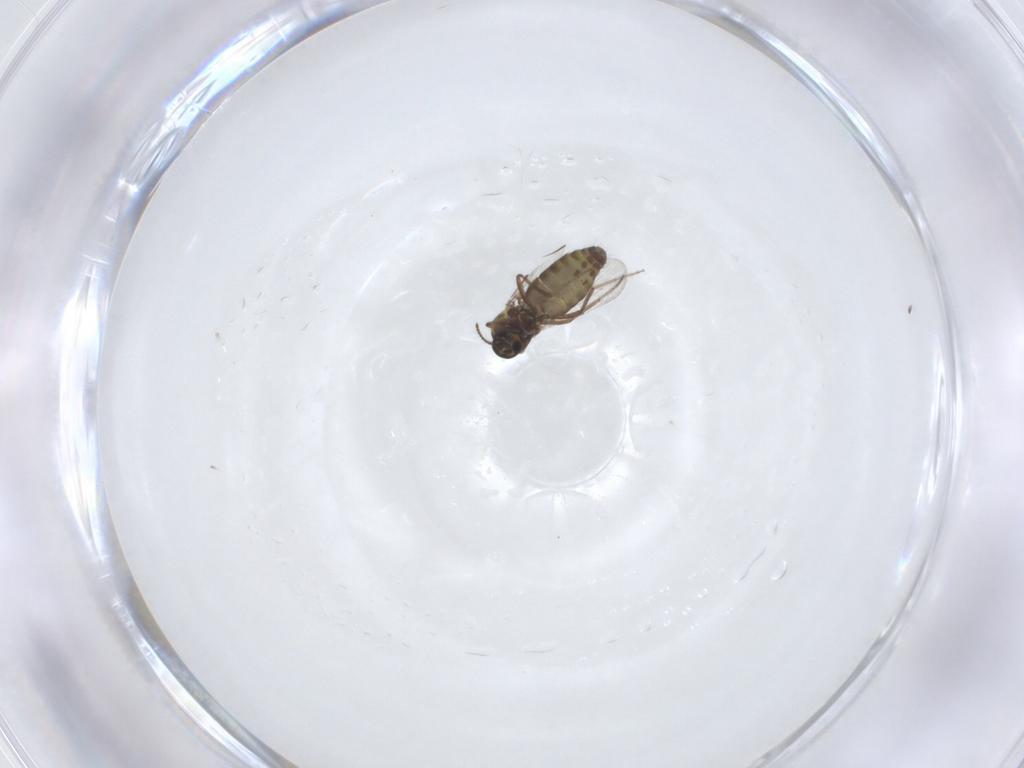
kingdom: Animalia
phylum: Arthropoda
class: Insecta
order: Diptera
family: Ceratopogonidae
